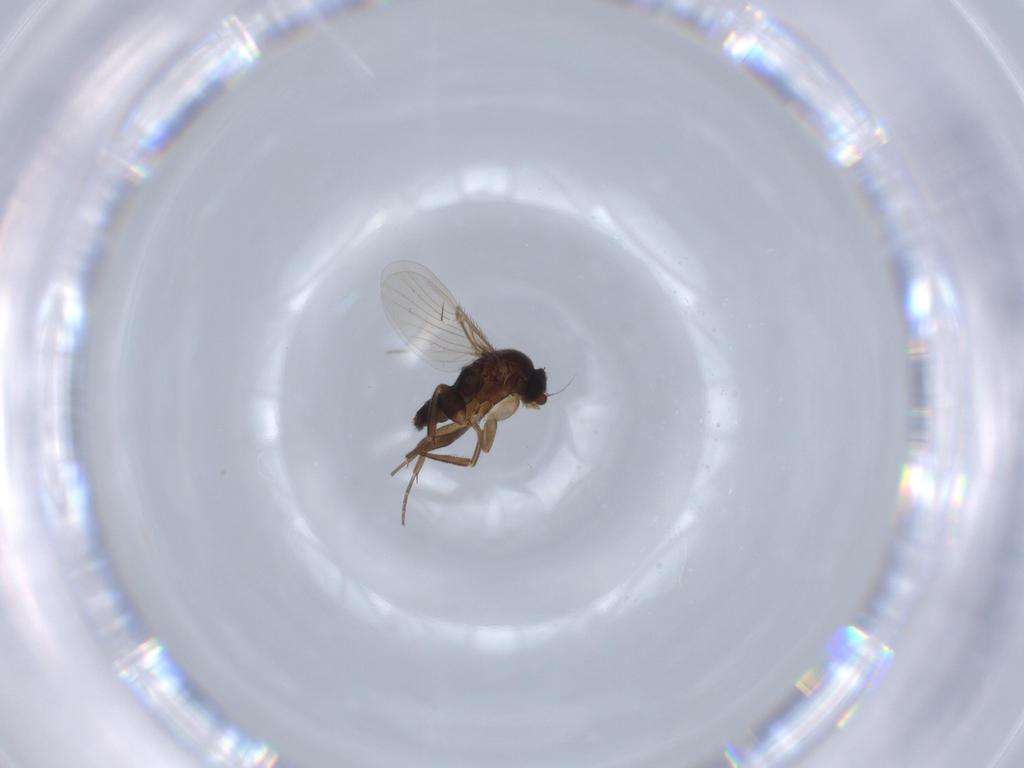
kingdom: Animalia
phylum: Arthropoda
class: Insecta
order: Diptera
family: Phoridae
